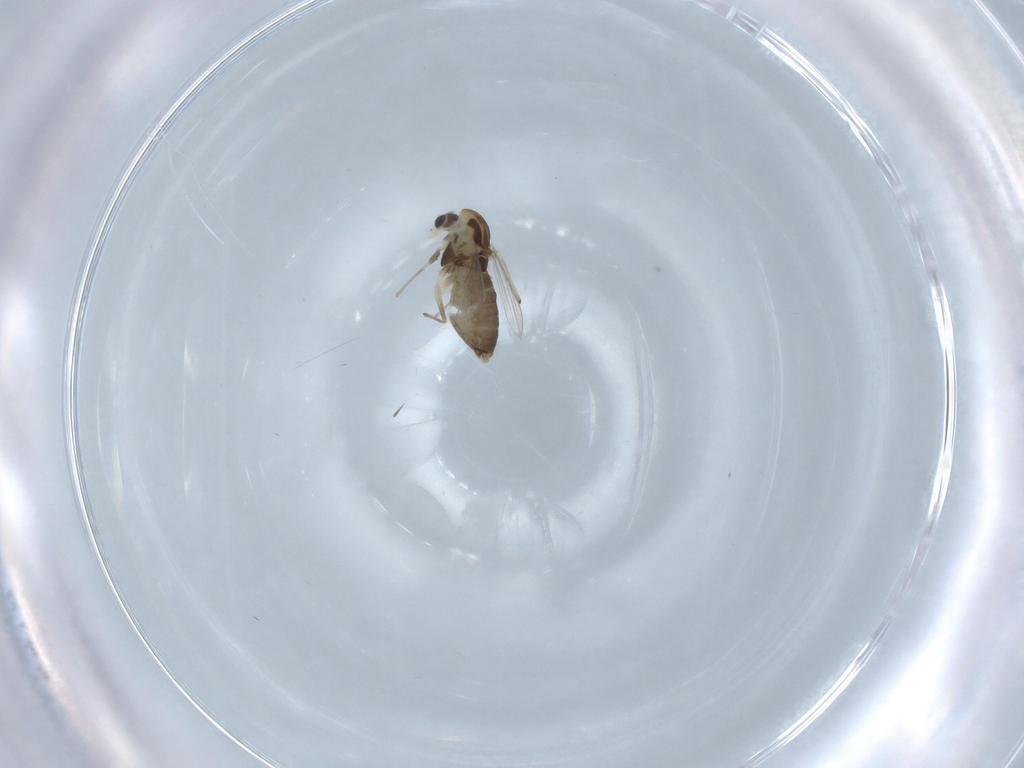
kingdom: Animalia
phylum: Arthropoda
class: Insecta
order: Diptera
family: Chironomidae
